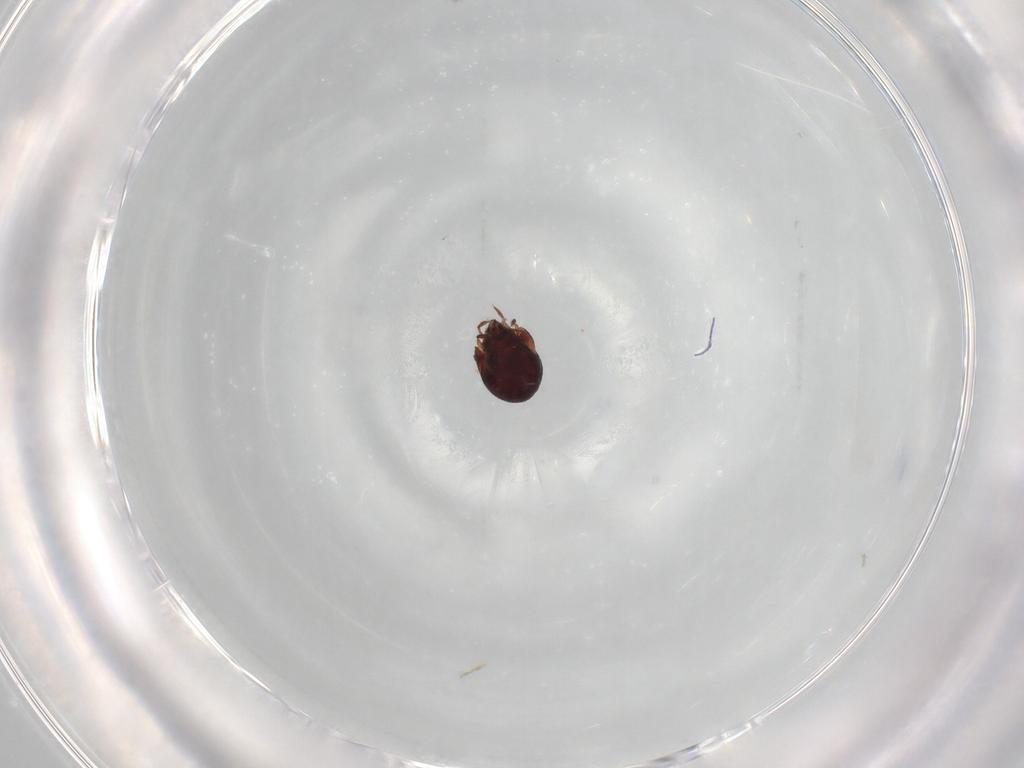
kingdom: Animalia
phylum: Arthropoda
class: Arachnida
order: Sarcoptiformes
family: Humerobatidae
